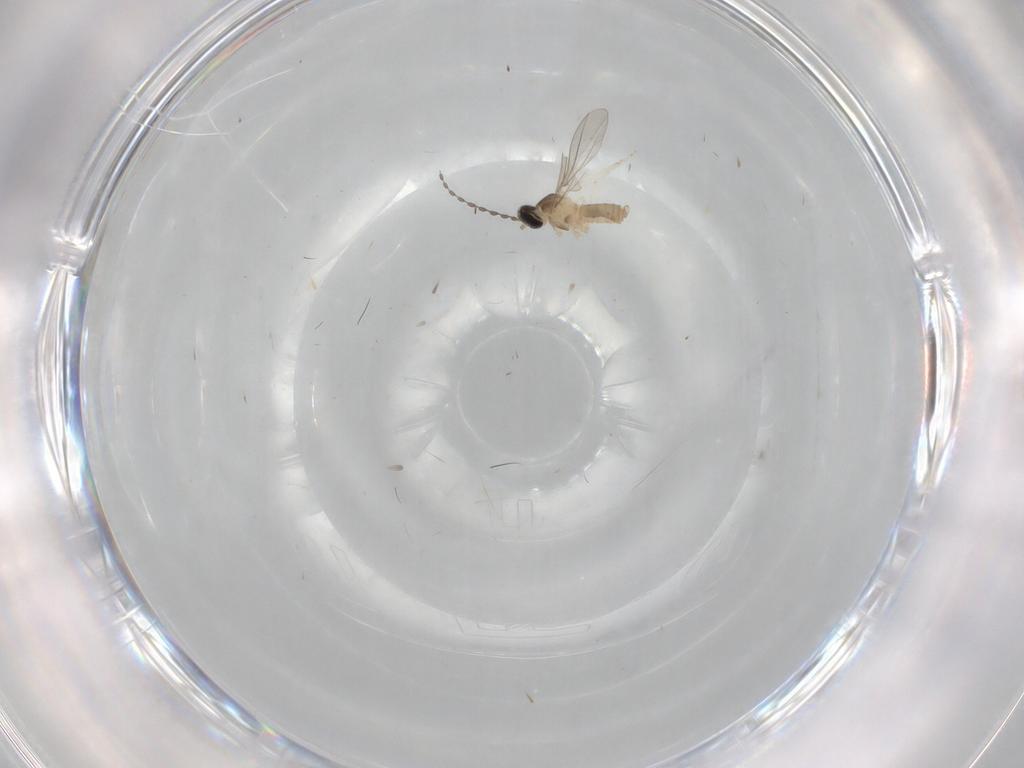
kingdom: Animalia
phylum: Arthropoda
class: Insecta
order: Diptera
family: Cecidomyiidae
